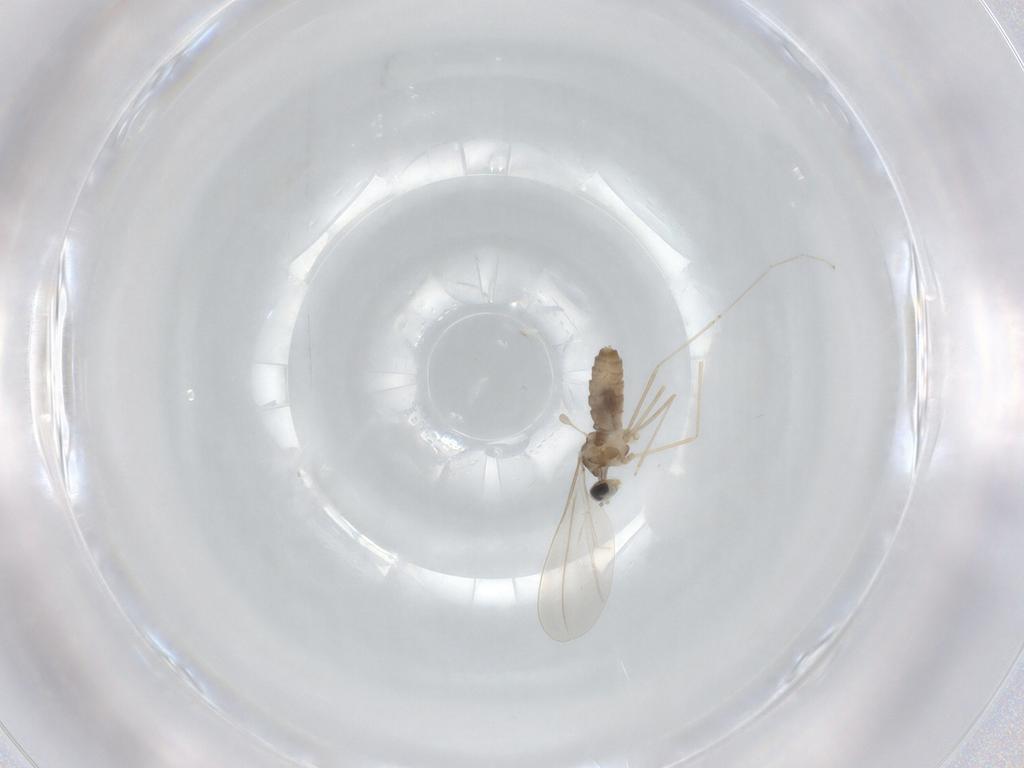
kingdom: Animalia
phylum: Arthropoda
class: Insecta
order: Diptera
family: Cecidomyiidae
